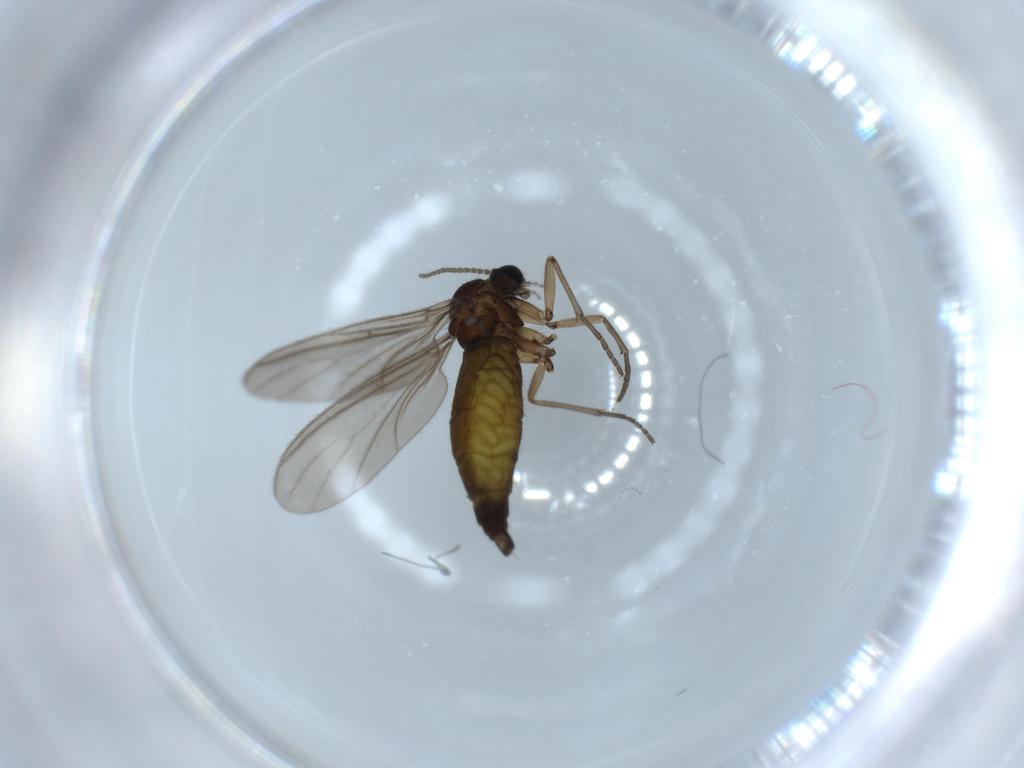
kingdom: Animalia
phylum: Arthropoda
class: Insecta
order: Diptera
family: Sciaridae
